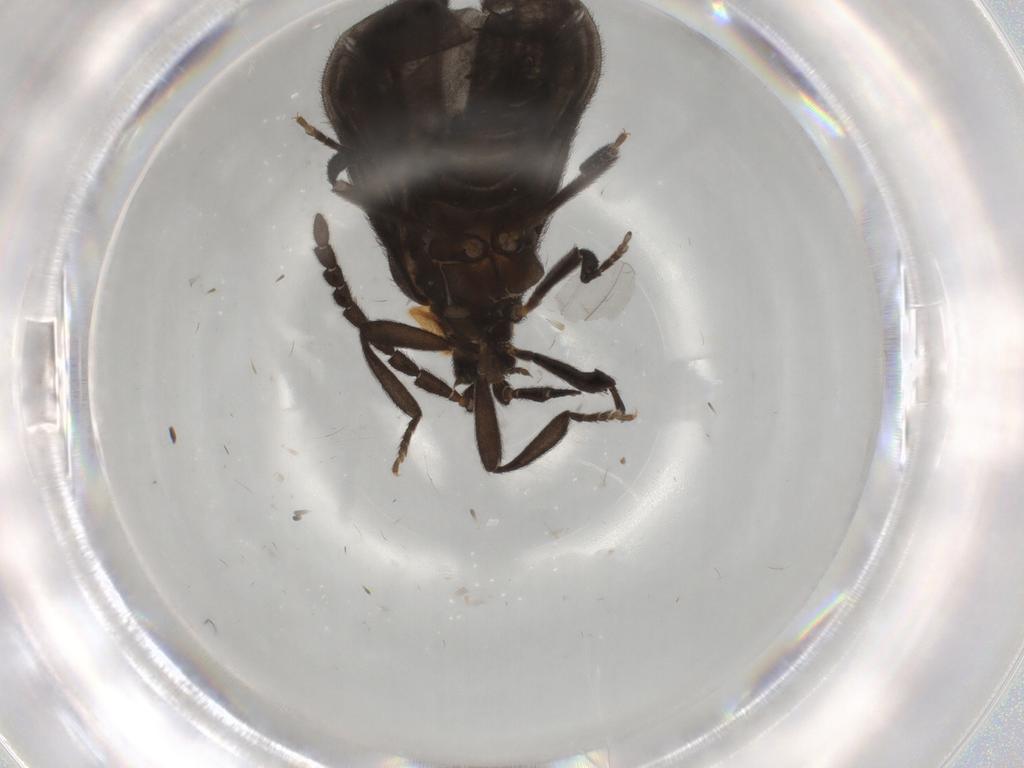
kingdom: Animalia
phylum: Arthropoda
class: Insecta
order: Coleoptera
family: Lycidae
